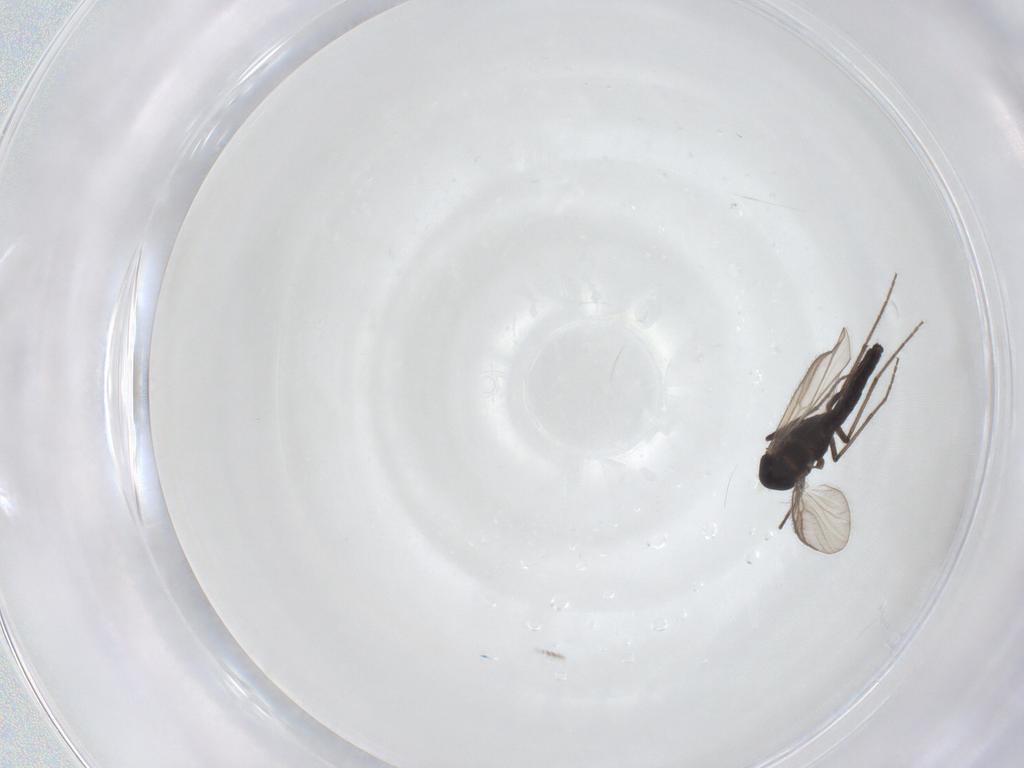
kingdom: Animalia
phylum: Arthropoda
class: Insecta
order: Diptera
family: Chironomidae
